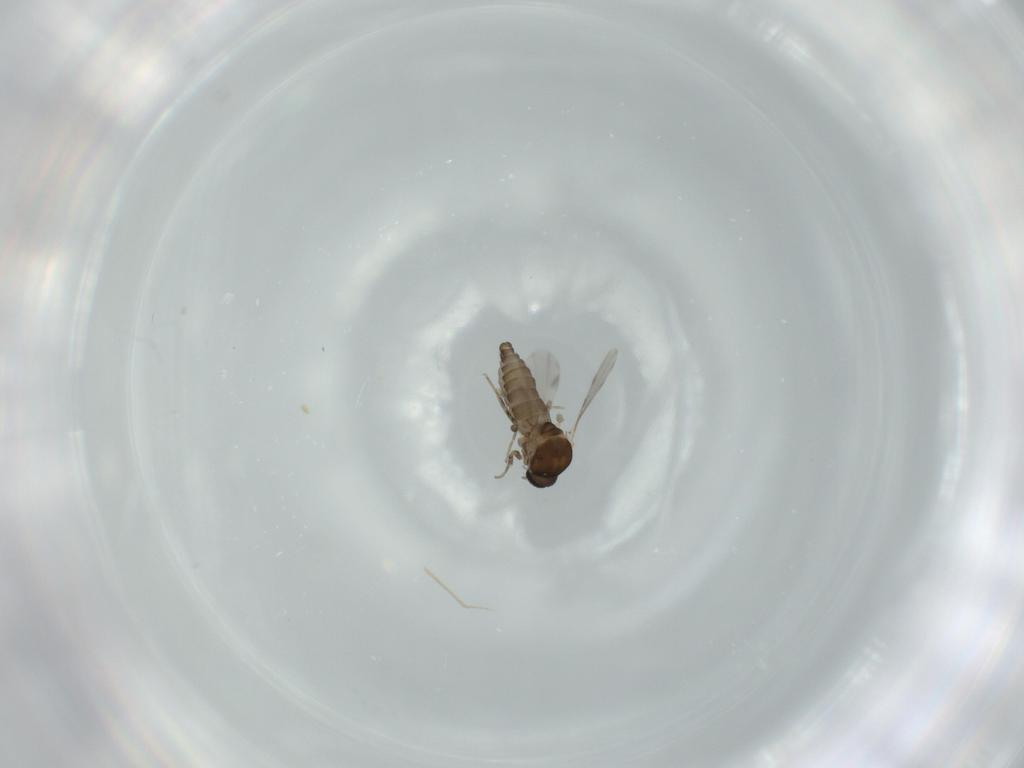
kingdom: Animalia
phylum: Arthropoda
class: Insecta
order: Diptera
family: Ceratopogonidae
